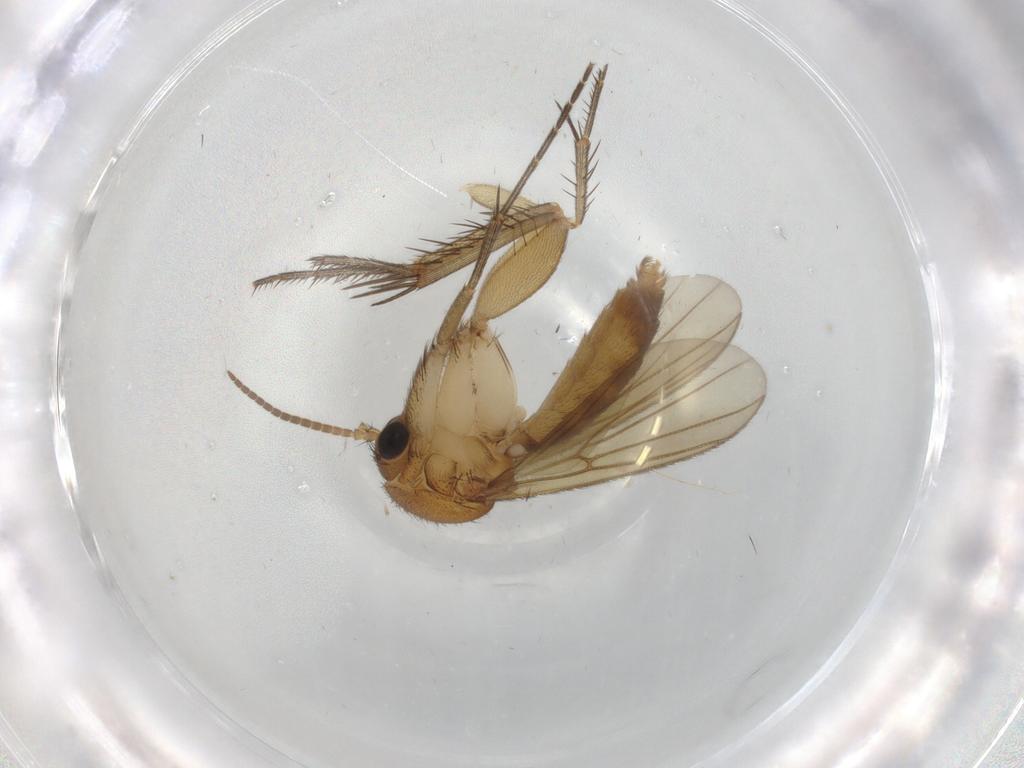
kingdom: Animalia
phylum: Arthropoda
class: Insecta
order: Diptera
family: Mycetophilidae
